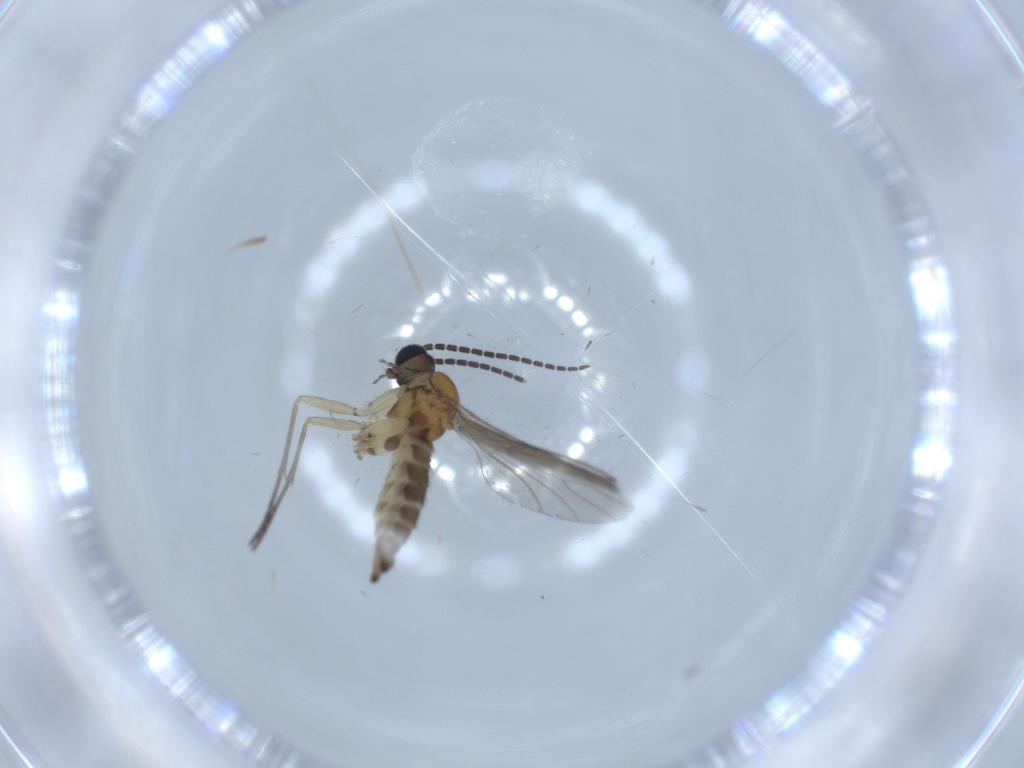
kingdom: Animalia
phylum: Arthropoda
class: Insecta
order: Diptera
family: Sciaridae
